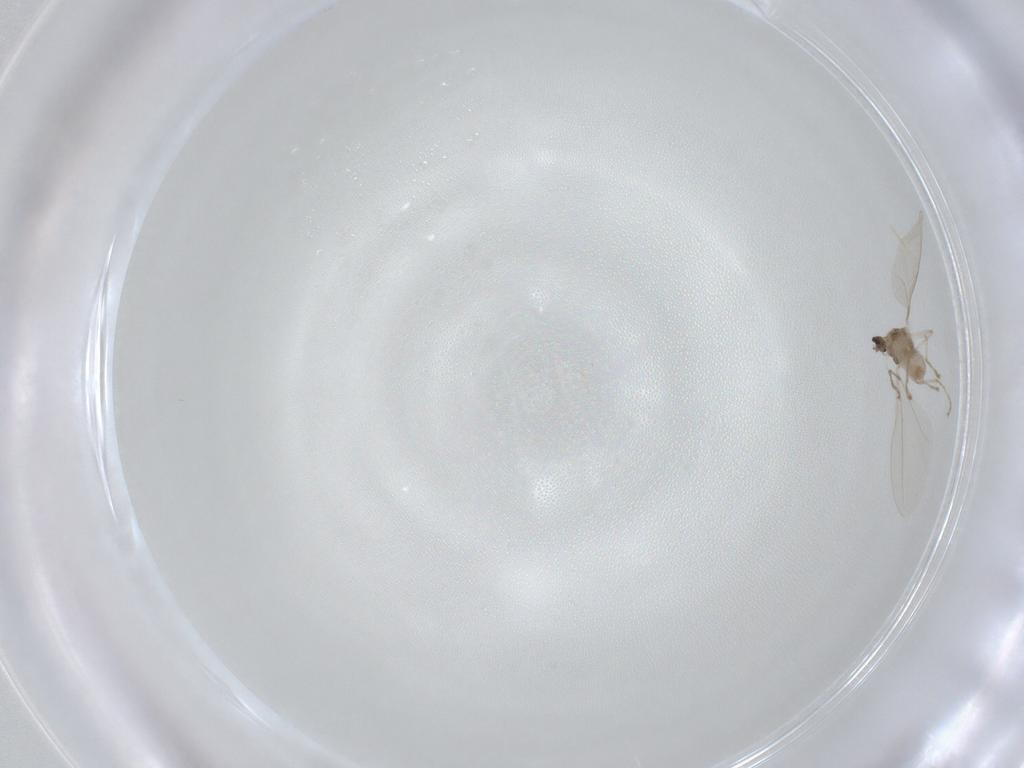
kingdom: Animalia
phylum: Arthropoda
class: Insecta
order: Diptera
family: Cecidomyiidae
